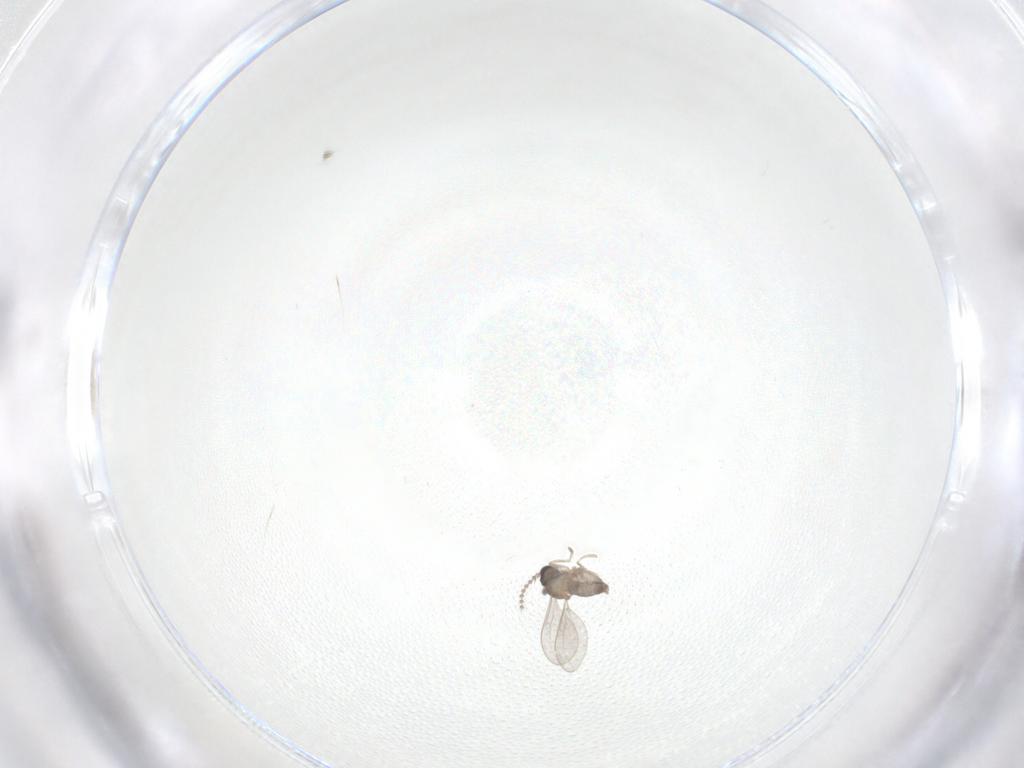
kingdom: Animalia
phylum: Arthropoda
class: Insecta
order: Diptera
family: Cecidomyiidae
